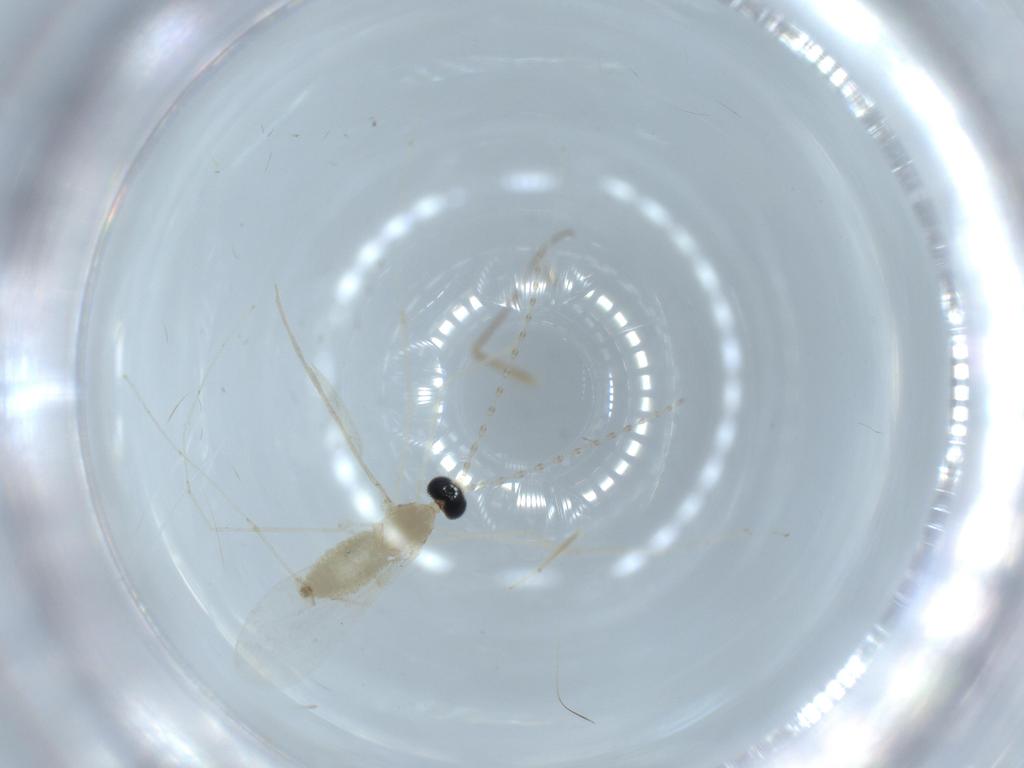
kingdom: Animalia
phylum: Arthropoda
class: Insecta
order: Diptera
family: Cecidomyiidae
